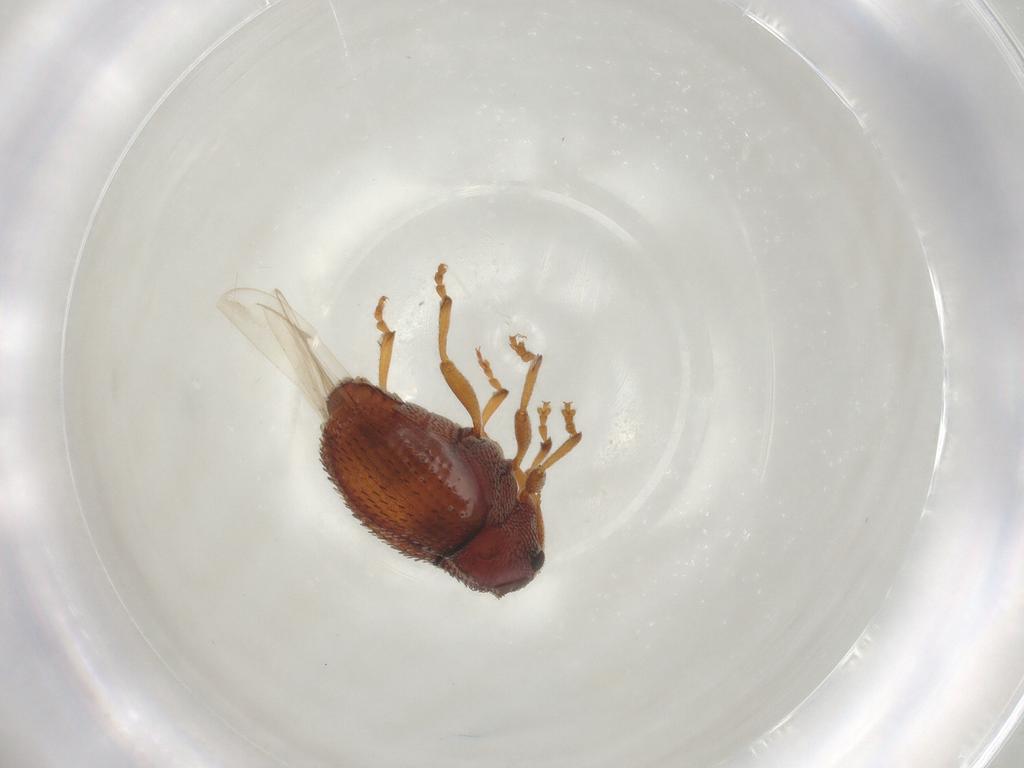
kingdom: Animalia
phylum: Arthropoda
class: Insecta
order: Coleoptera
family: Curculionidae
